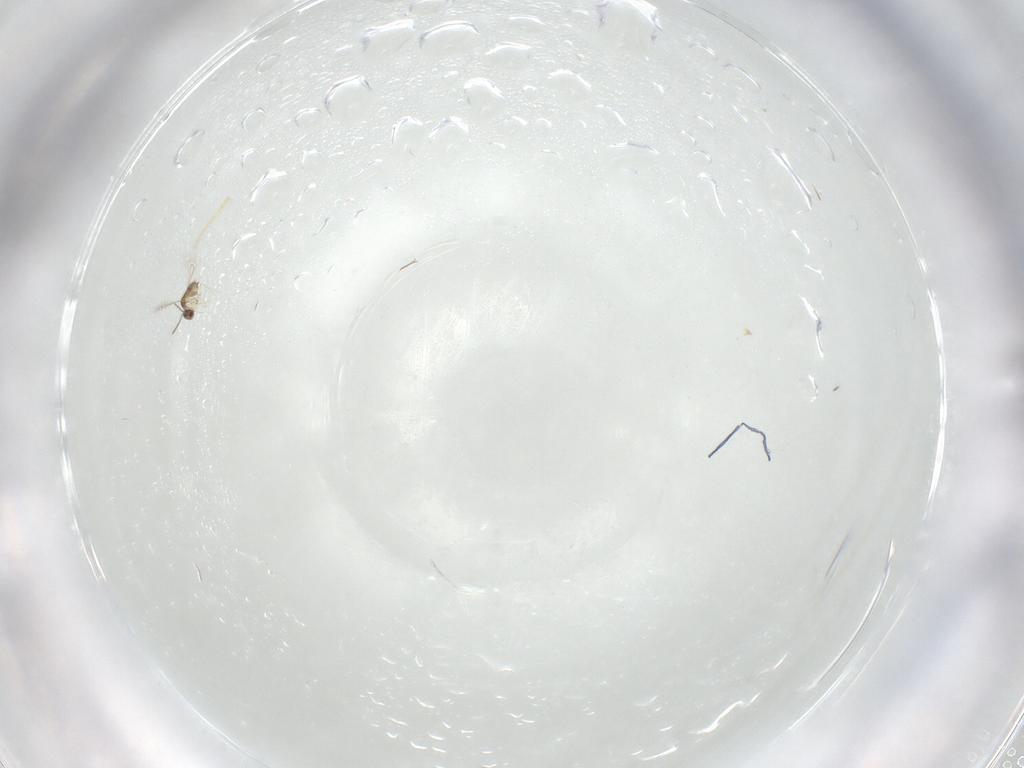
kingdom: Animalia
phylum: Arthropoda
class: Insecta
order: Hymenoptera
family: Mymaridae
